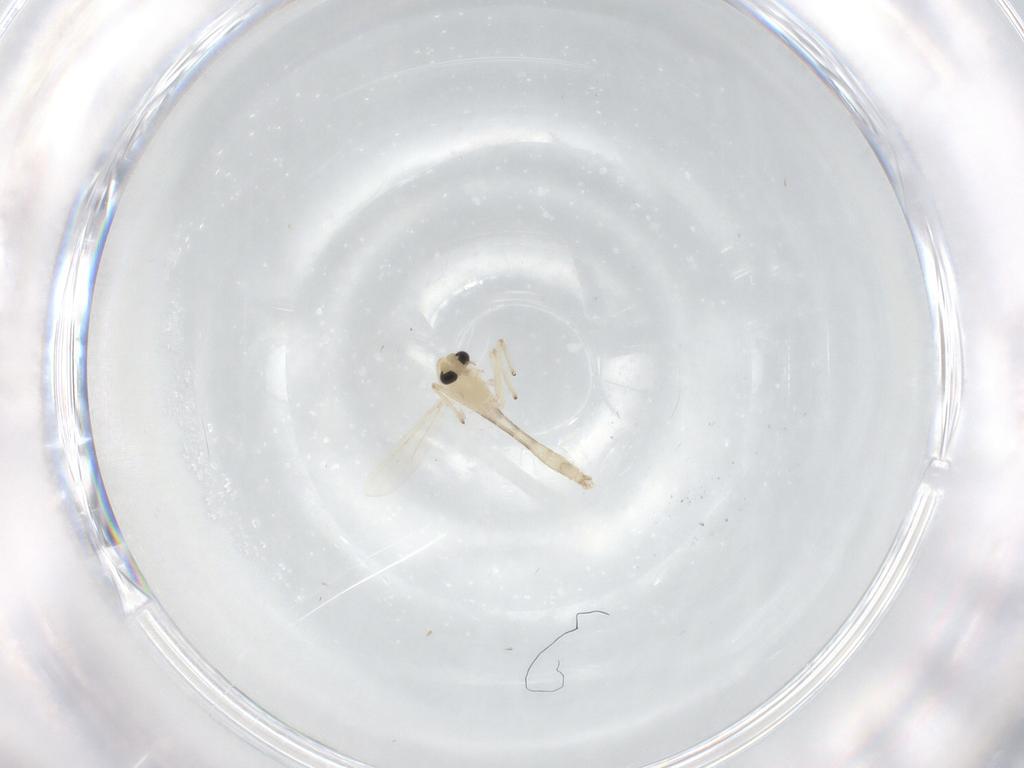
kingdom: Animalia
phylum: Arthropoda
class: Insecta
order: Diptera
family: Chironomidae
